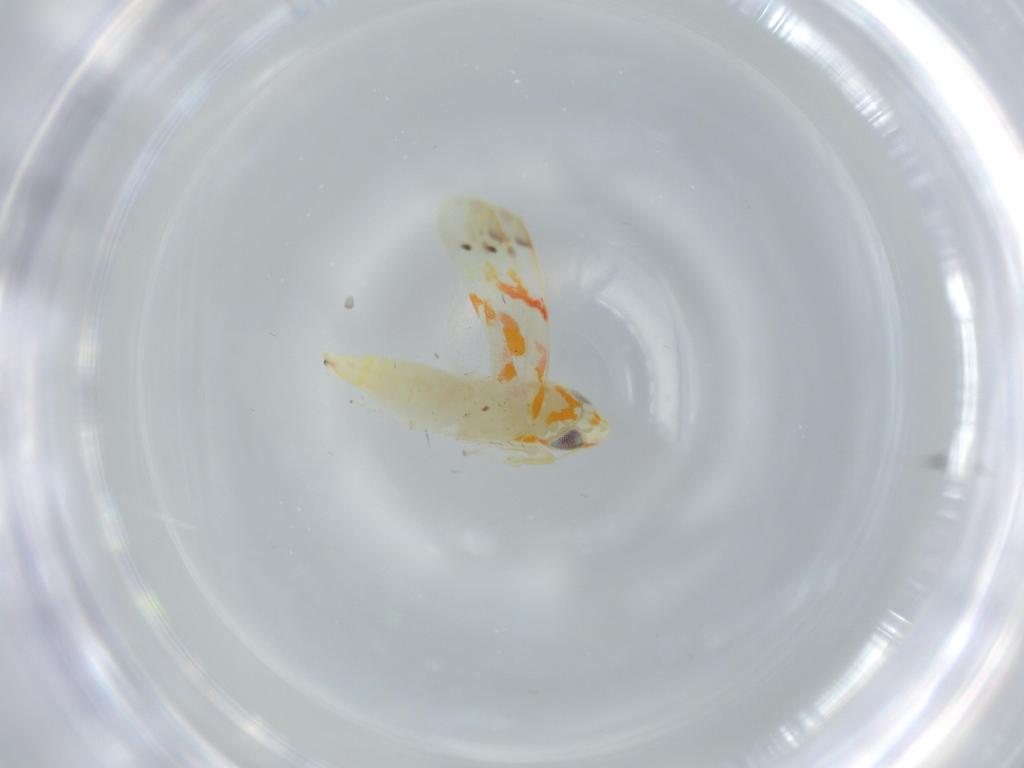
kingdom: Animalia
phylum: Arthropoda
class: Insecta
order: Hemiptera
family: Cicadellidae
